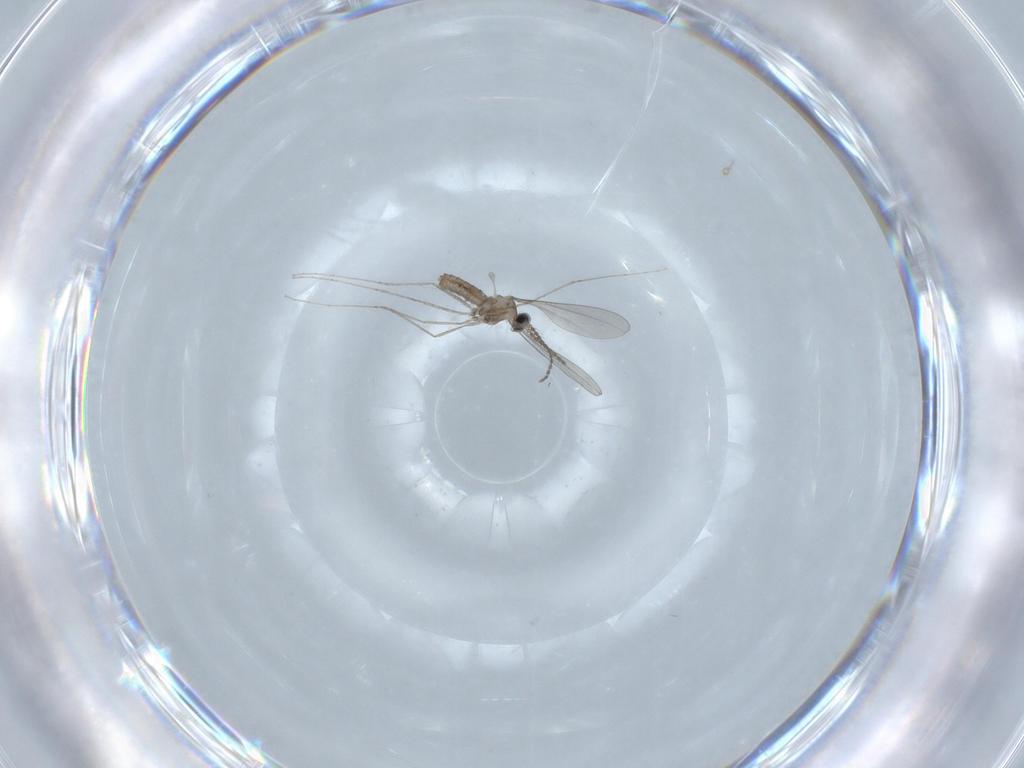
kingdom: Animalia
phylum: Arthropoda
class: Insecta
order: Diptera
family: Cecidomyiidae
